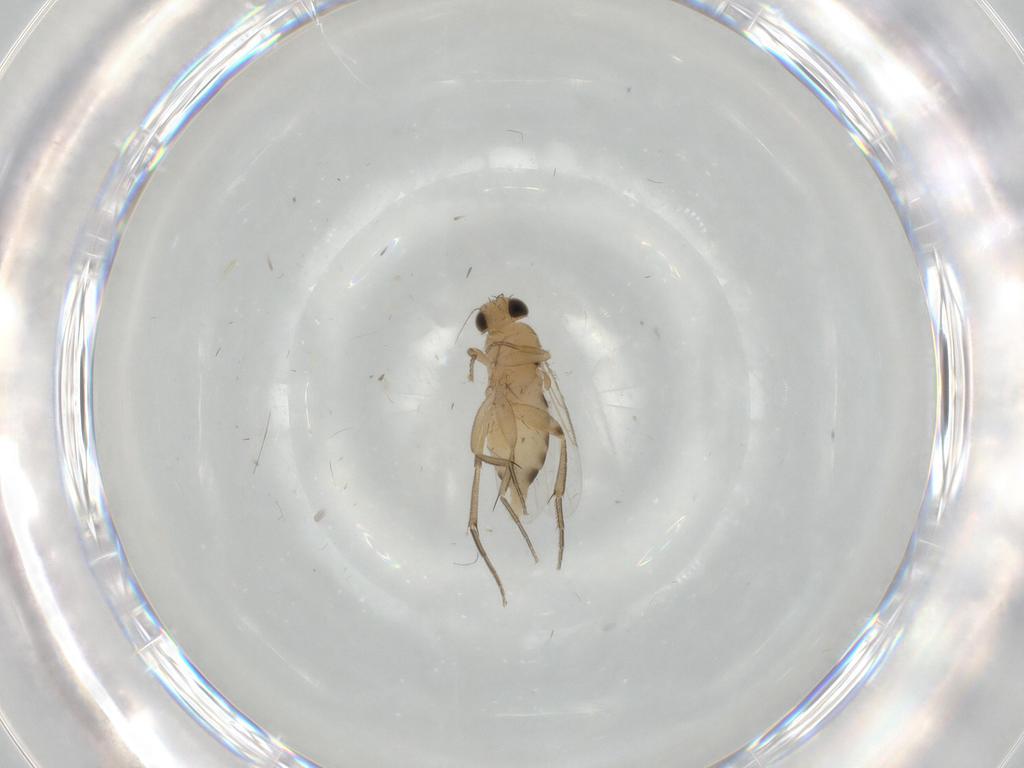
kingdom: Animalia
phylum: Arthropoda
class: Insecta
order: Diptera
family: Phoridae
